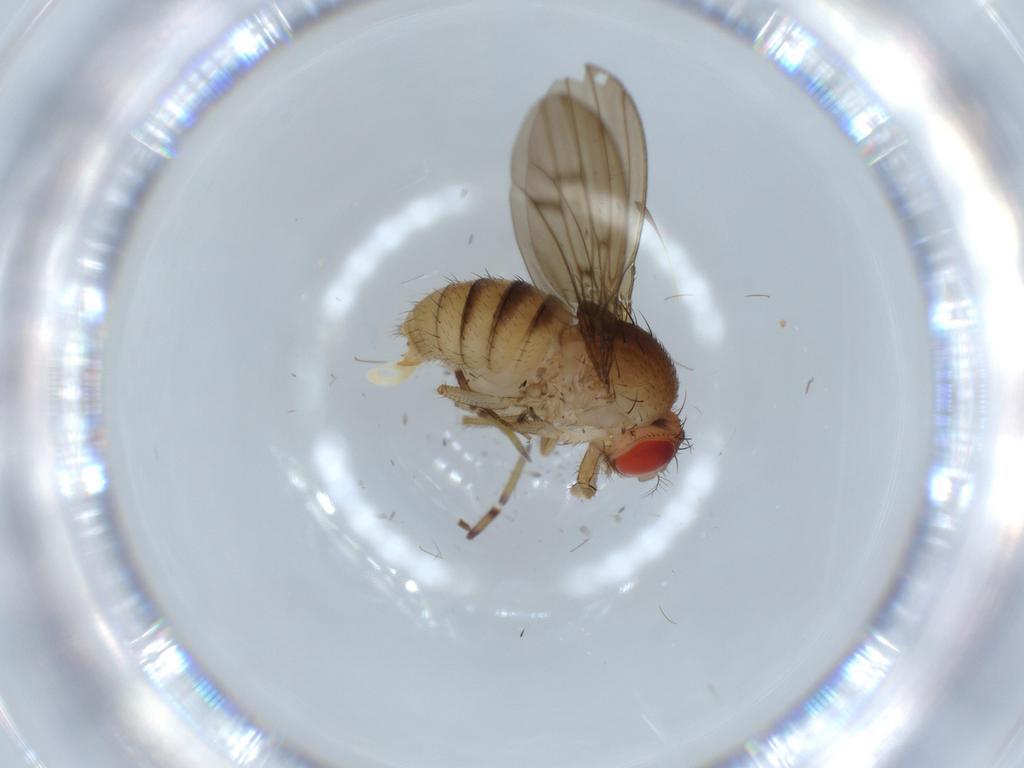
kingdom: Animalia
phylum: Arthropoda
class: Insecta
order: Diptera
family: Drosophilidae
